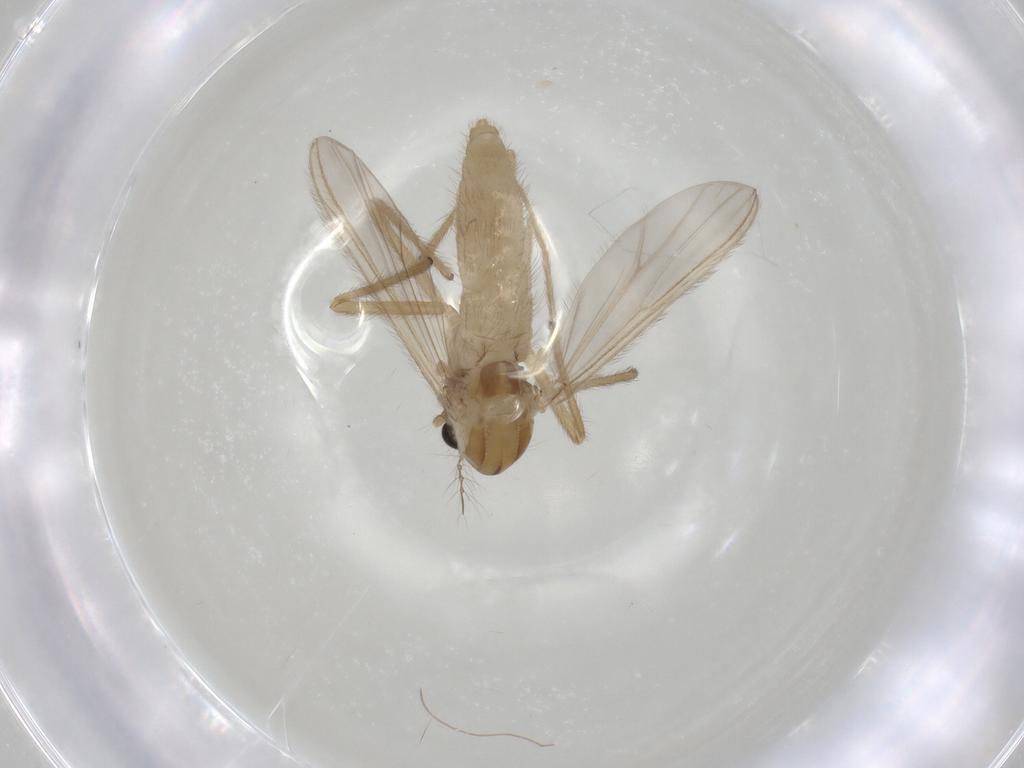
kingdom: Animalia
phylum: Arthropoda
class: Insecta
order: Diptera
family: Chironomidae
